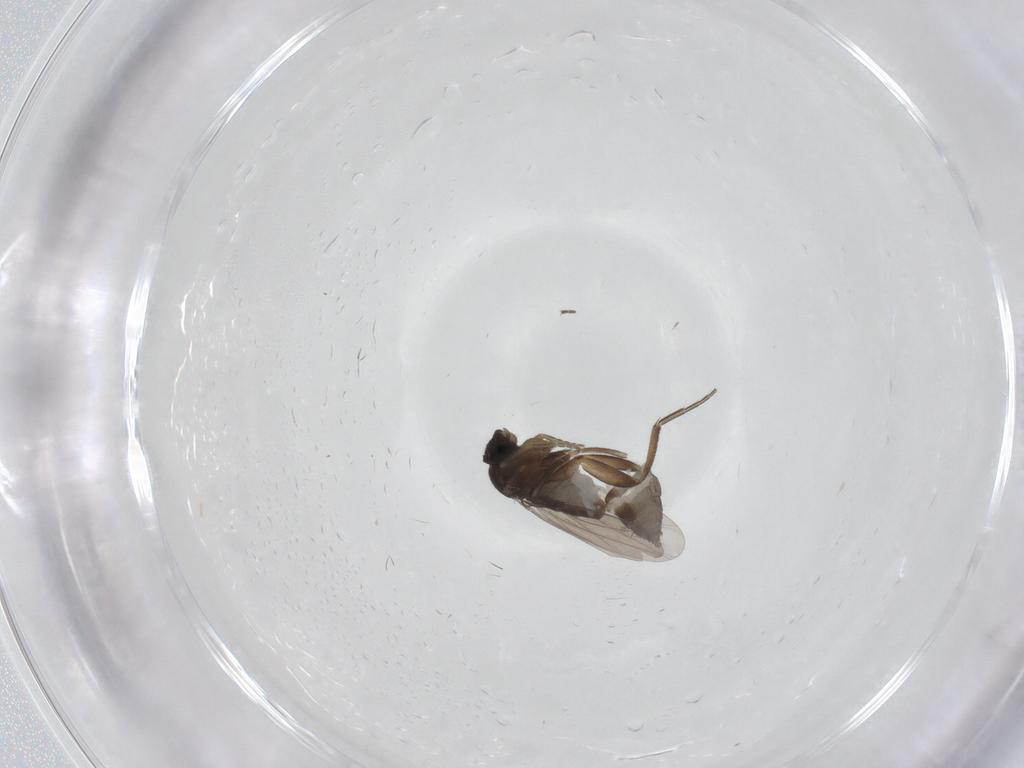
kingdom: Animalia
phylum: Arthropoda
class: Insecta
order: Diptera
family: Phoridae
